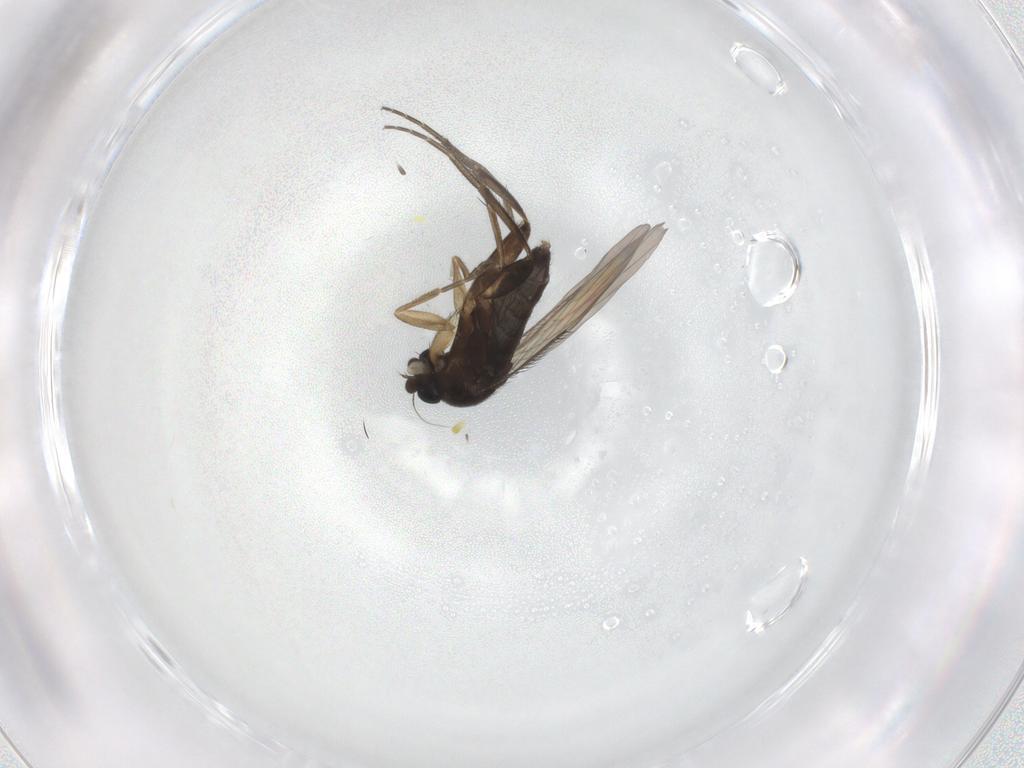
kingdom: Animalia
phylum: Arthropoda
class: Insecta
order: Diptera
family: Phoridae
